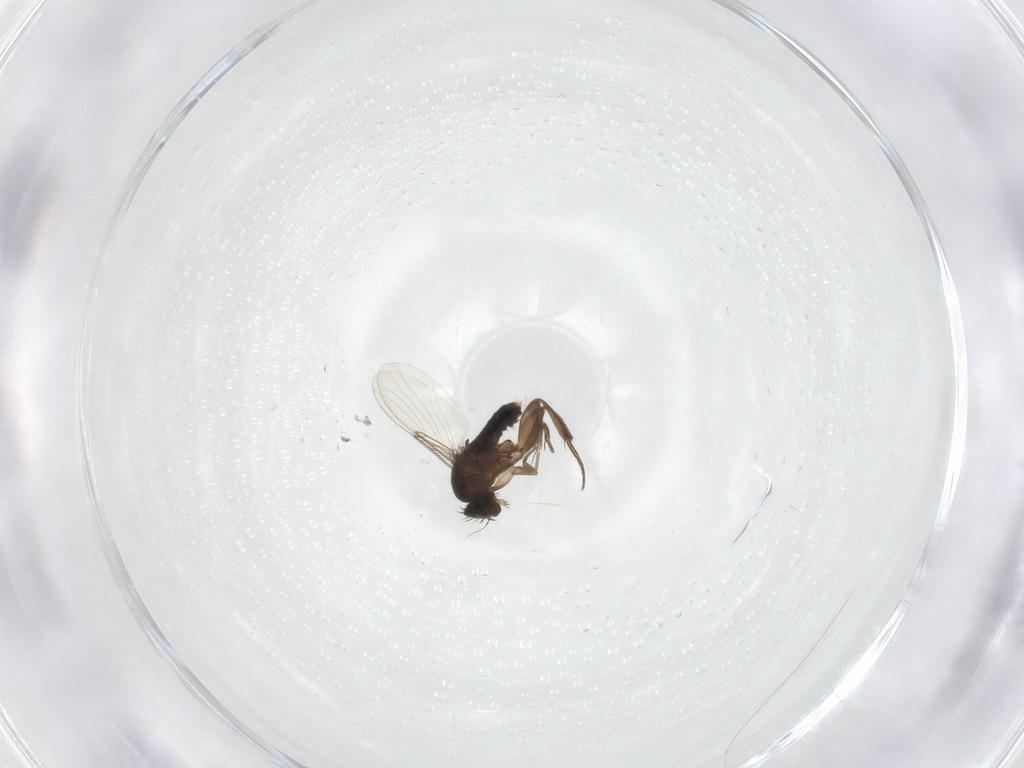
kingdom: Animalia
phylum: Arthropoda
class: Insecta
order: Diptera
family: Phoridae
